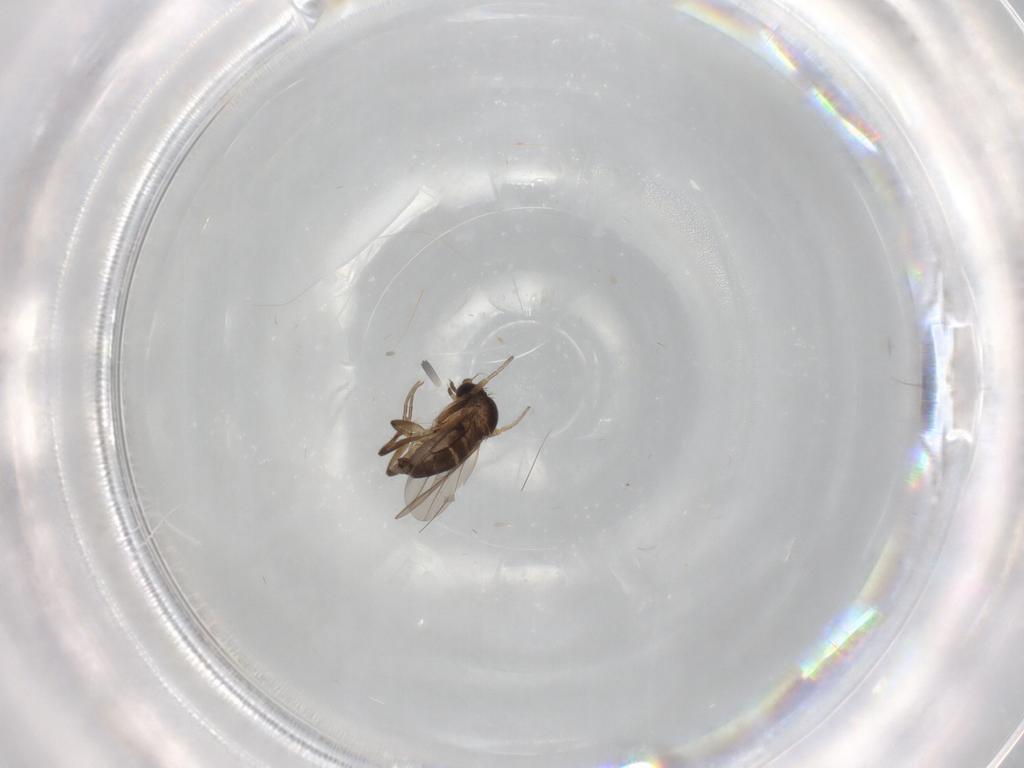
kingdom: Animalia
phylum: Arthropoda
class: Insecta
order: Diptera
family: Phoridae
